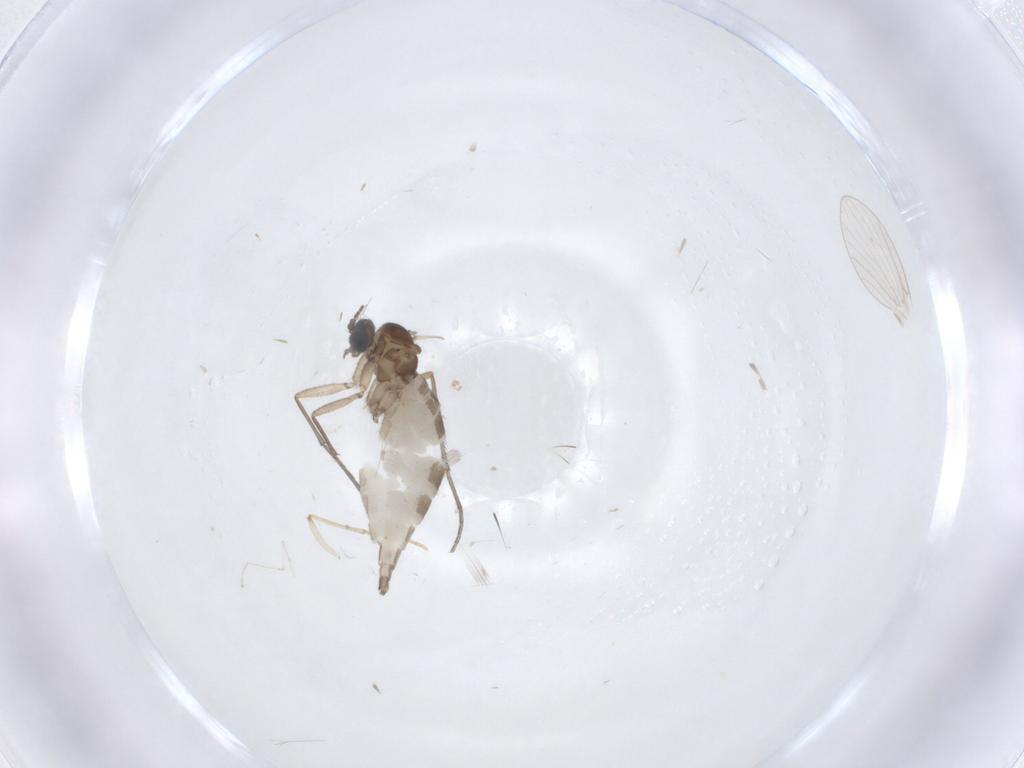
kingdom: Animalia
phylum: Arthropoda
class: Insecta
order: Diptera
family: Sciaridae
